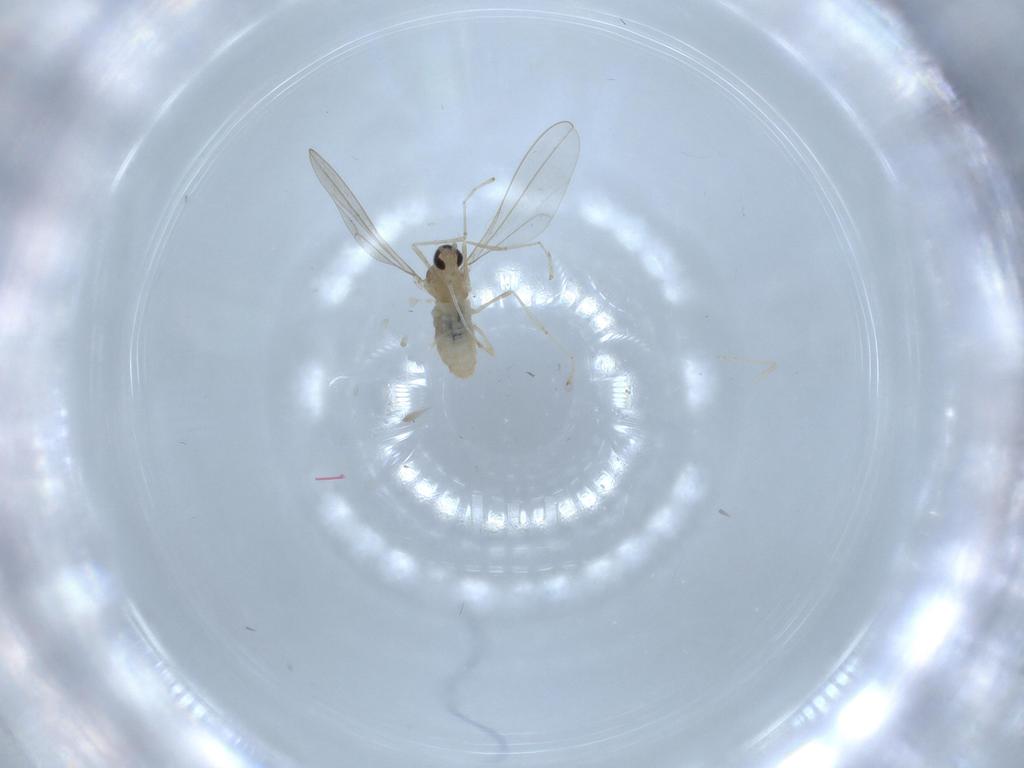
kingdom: Animalia
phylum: Arthropoda
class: Insecta
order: Diptera
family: Cecidomyiidae
